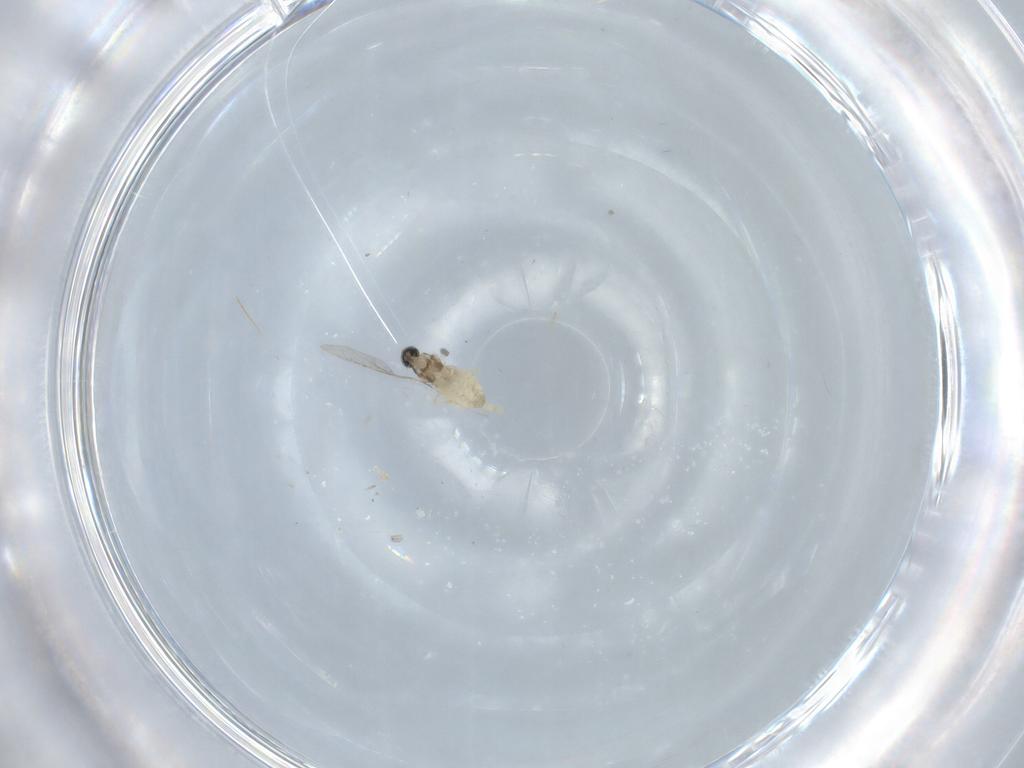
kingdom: Animalia
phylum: Arthropoda
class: Insecta
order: Diptera
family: Cecidomyiidae
